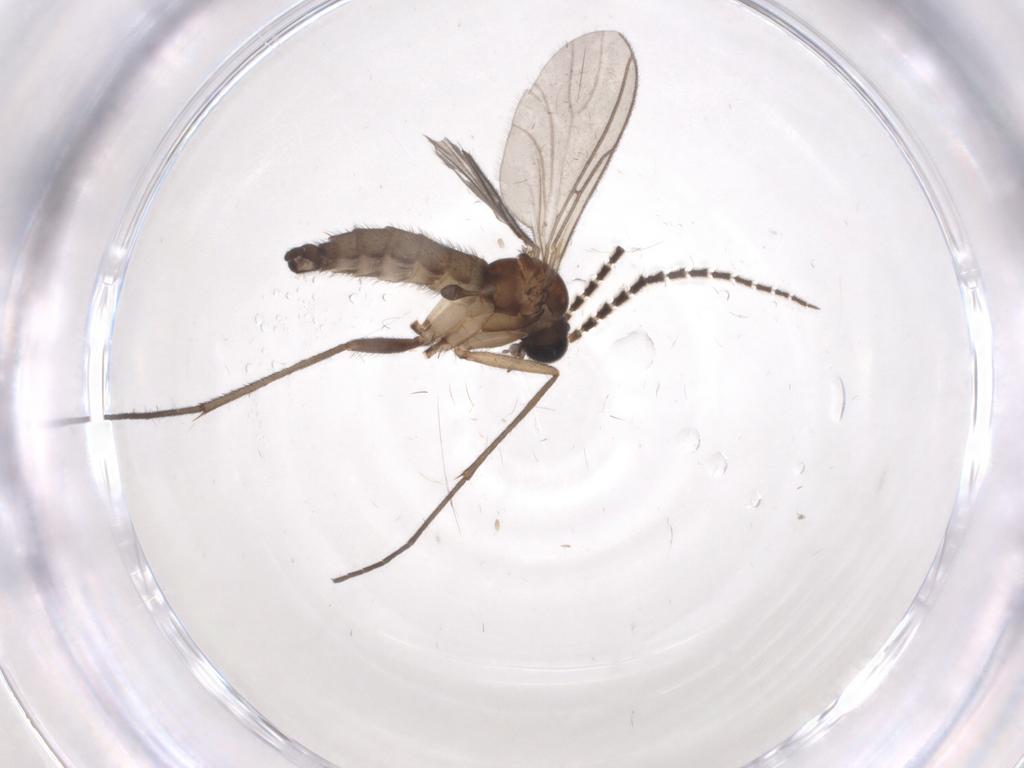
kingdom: Animalia
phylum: Arthropoda
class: Insecta
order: Diptera
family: Sciaridae
